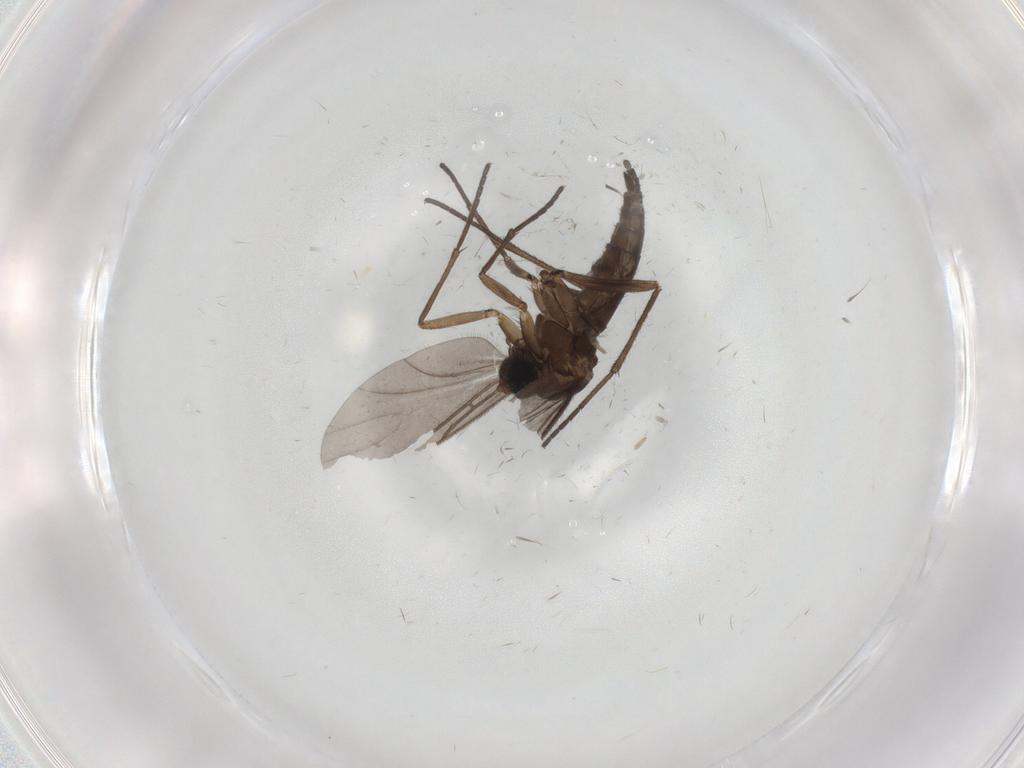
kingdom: Animalia
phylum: Arthropoda
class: Insecta
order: Diptera
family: Sciaridae
